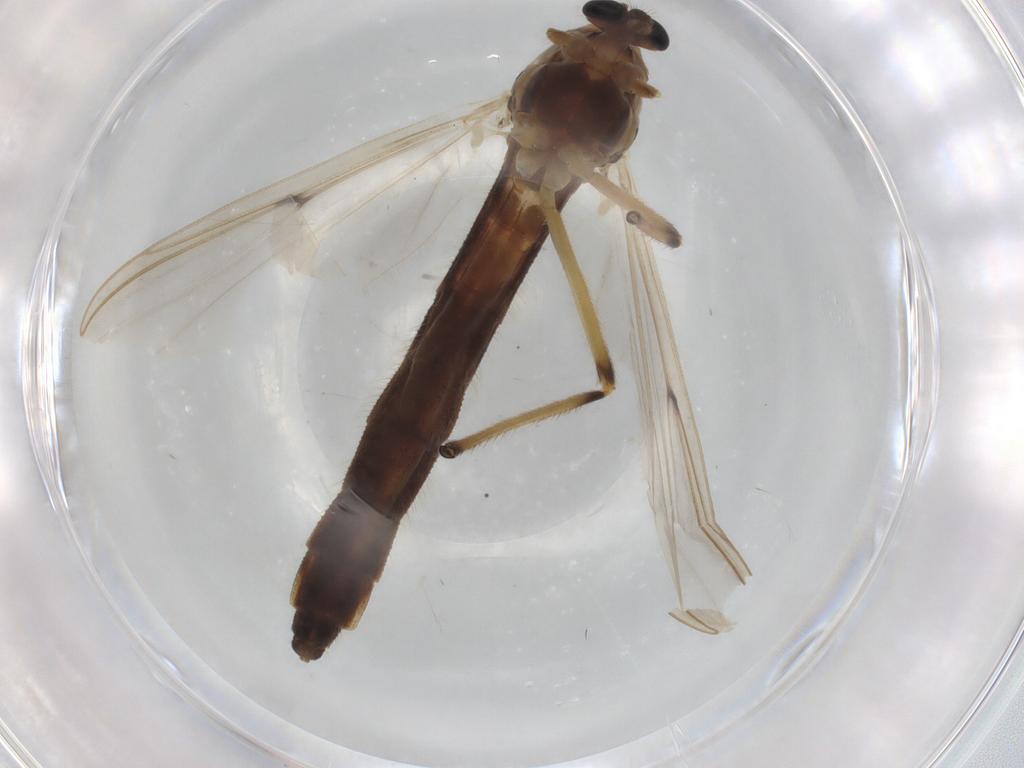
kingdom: Animalia
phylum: Arthropoda
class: Insecta
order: Diptera
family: Chironomidae
